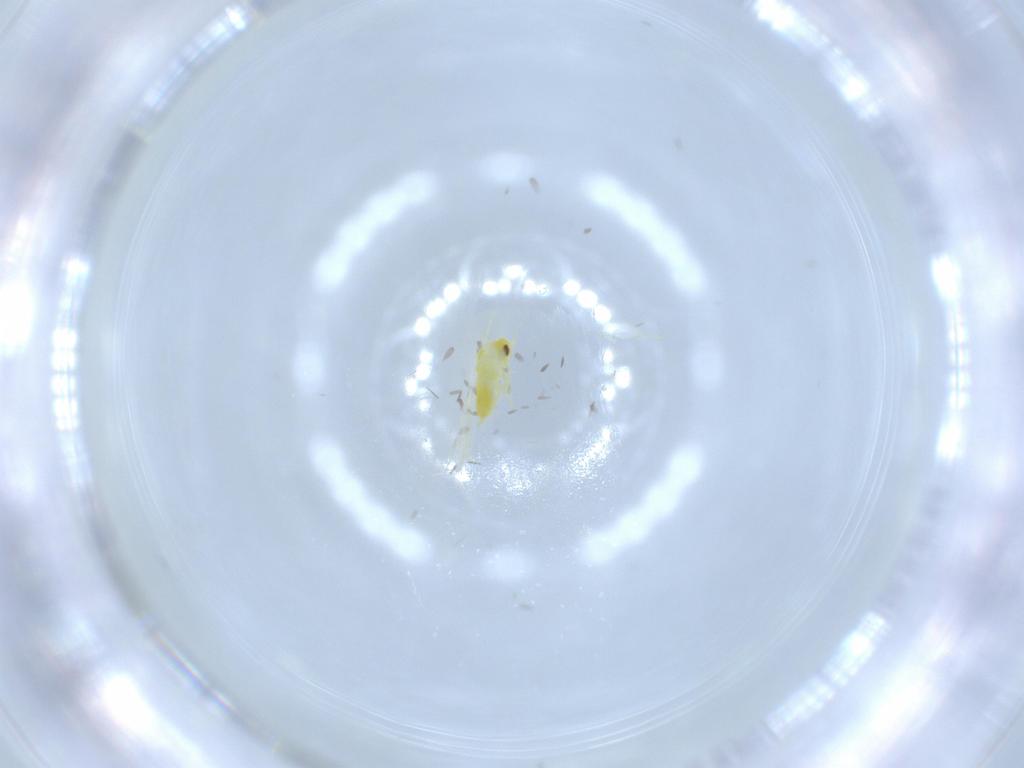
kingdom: Animalia
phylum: Arthropoda
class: Insecta
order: Hemiptera
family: Aleyrodidae
